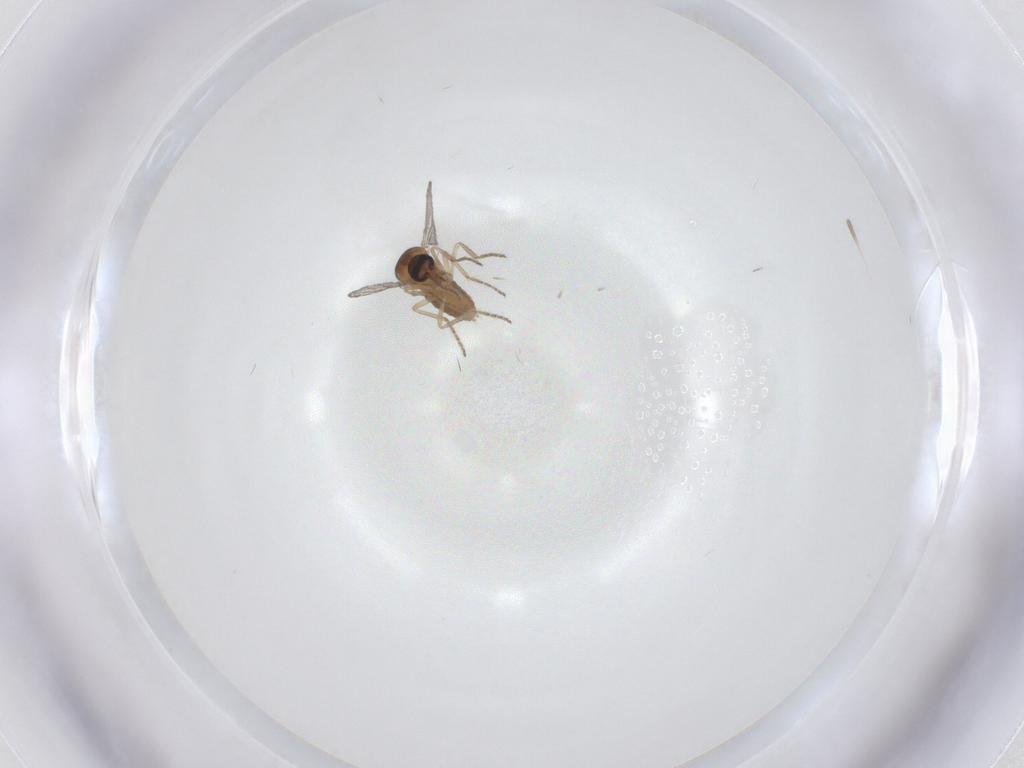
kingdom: Animalia
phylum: Arthropoda
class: Insecta
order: Diptera
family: Ceratopogonidae
